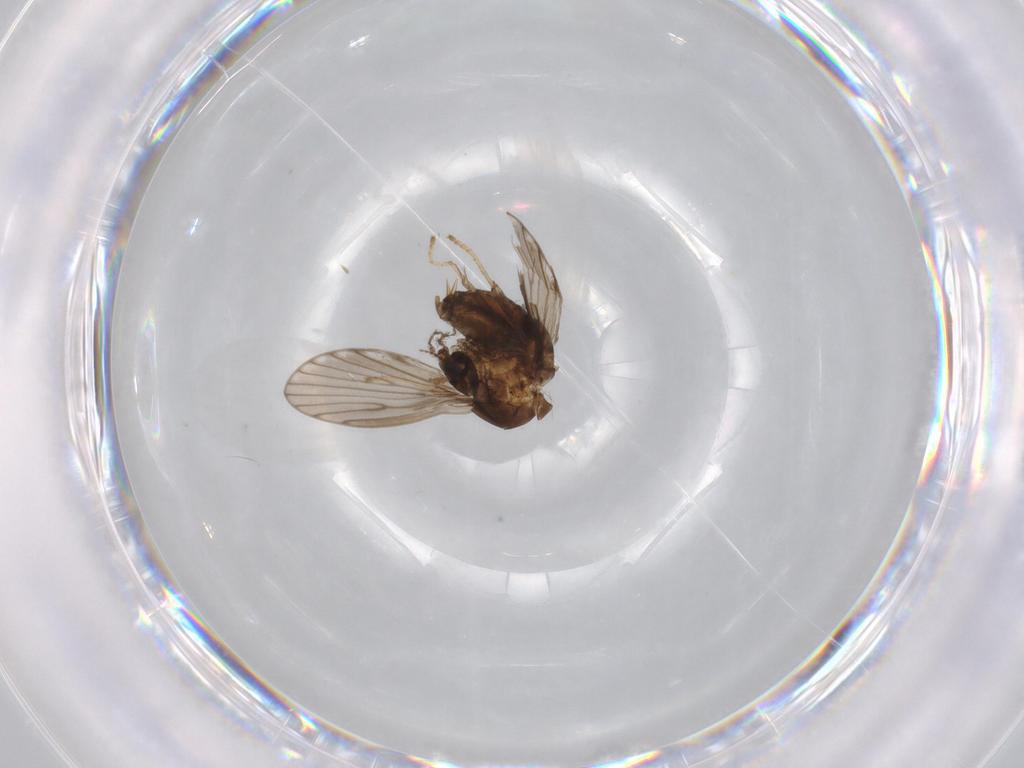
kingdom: Animalia
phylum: Arthropoda
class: Insecta
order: Diptera
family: Psychodidae
